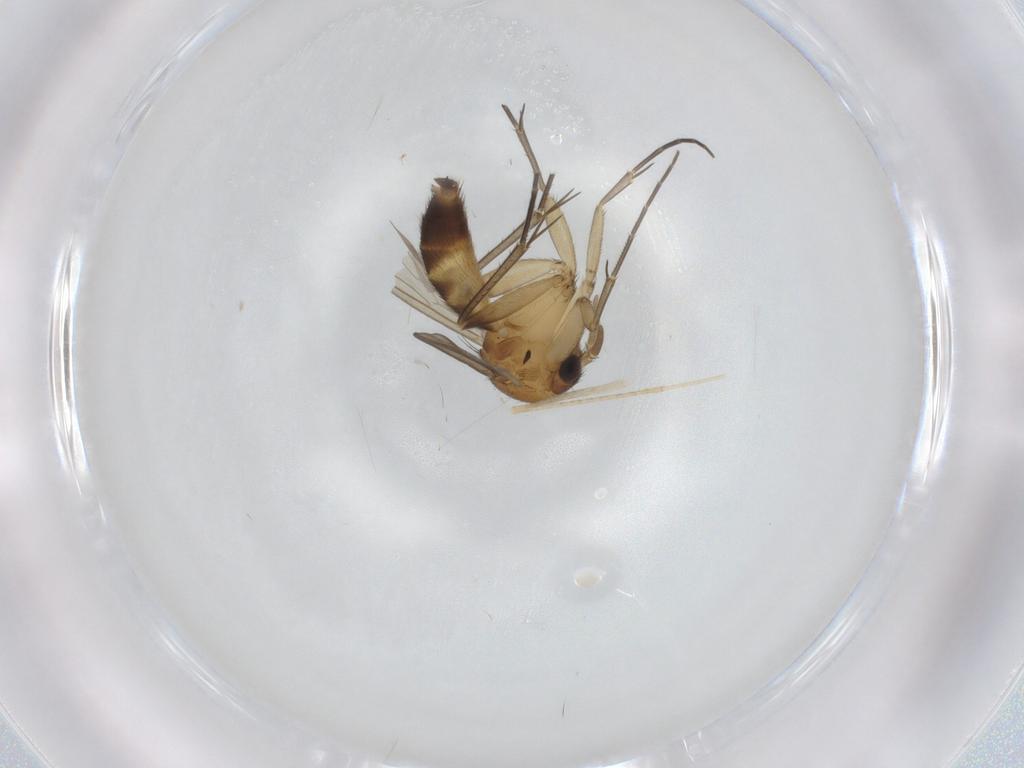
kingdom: Animalia
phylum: Arthropoda
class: Insecta
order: Diptera
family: Mycetophilidae
